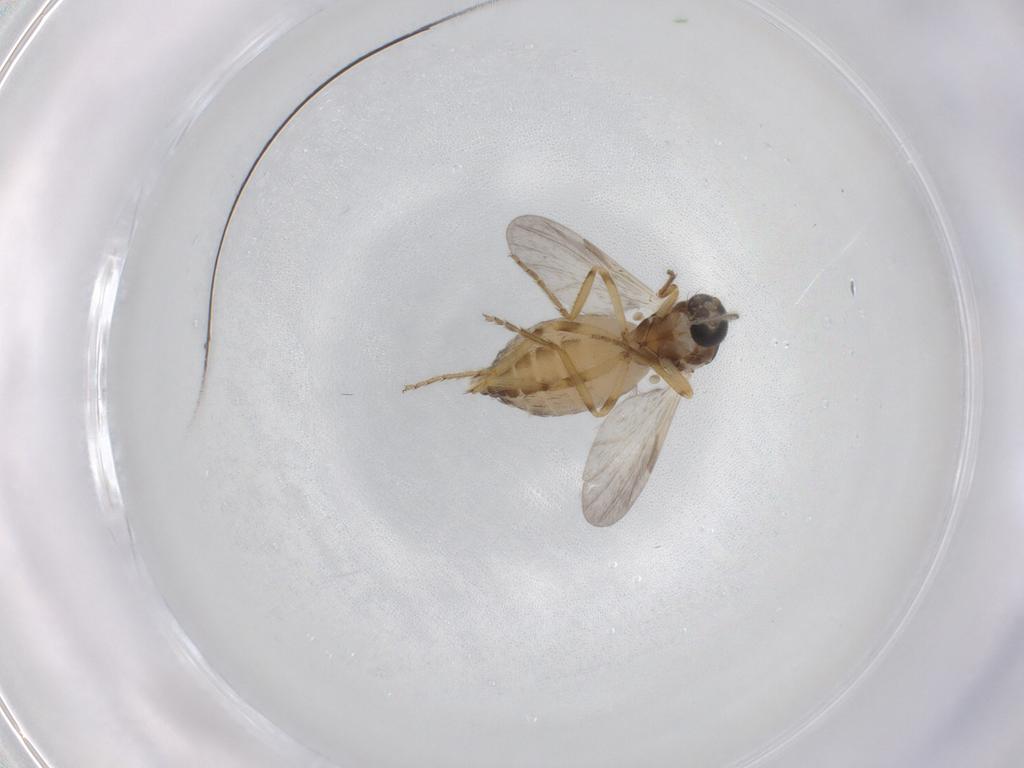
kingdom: Animalia
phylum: Arthropoda
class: Insecta
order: Diptera
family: Ceratopogonidae
